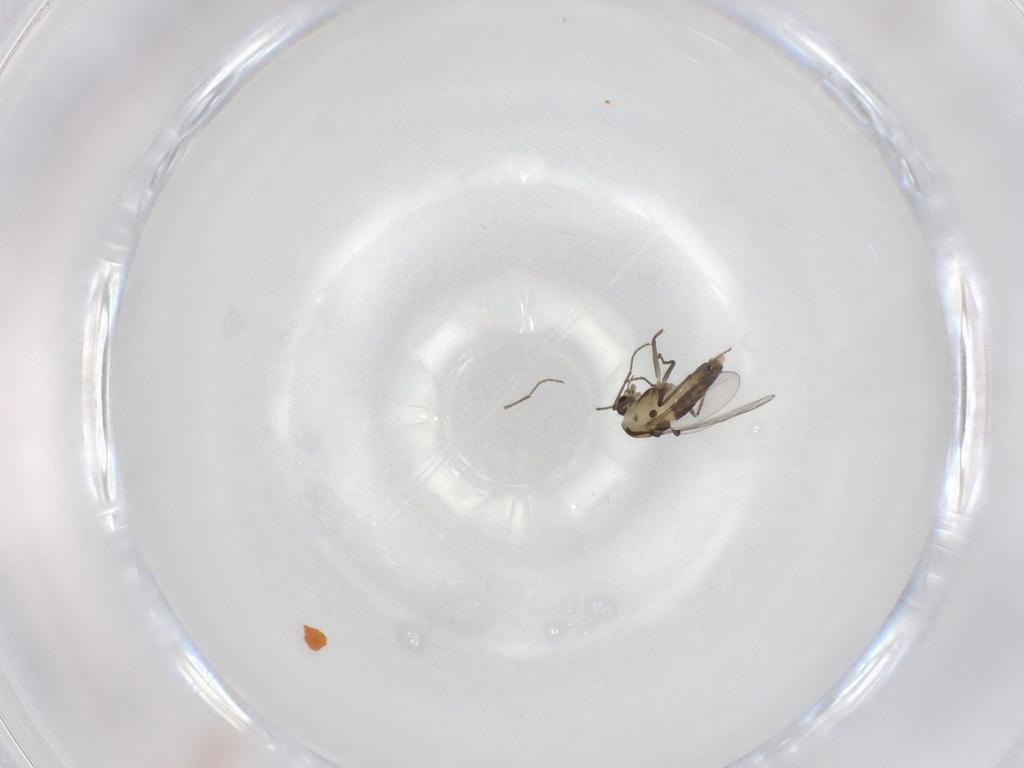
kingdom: Animalia
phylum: Arthropoda
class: Insecta
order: Diptera
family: Chironomidae
